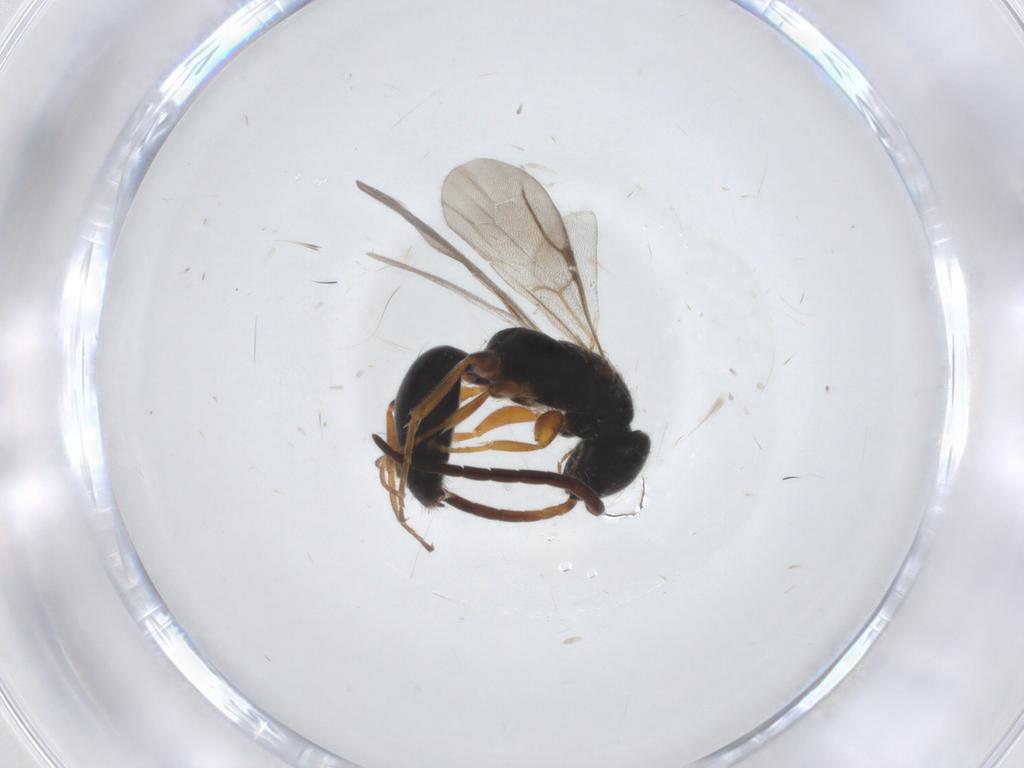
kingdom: Animalia
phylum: Arthropoda
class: Insecta
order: Hymenoptera
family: Bethylidae
